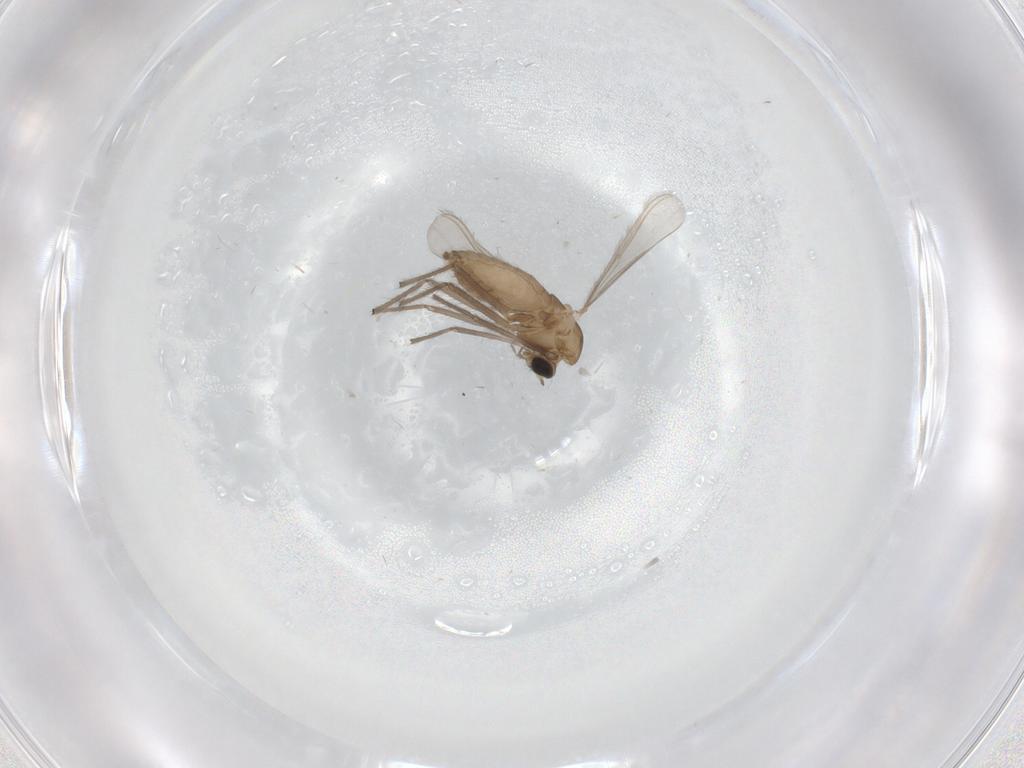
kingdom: Animalia
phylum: Arthropoda
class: Insecta
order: Diptera
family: Chironomidae
